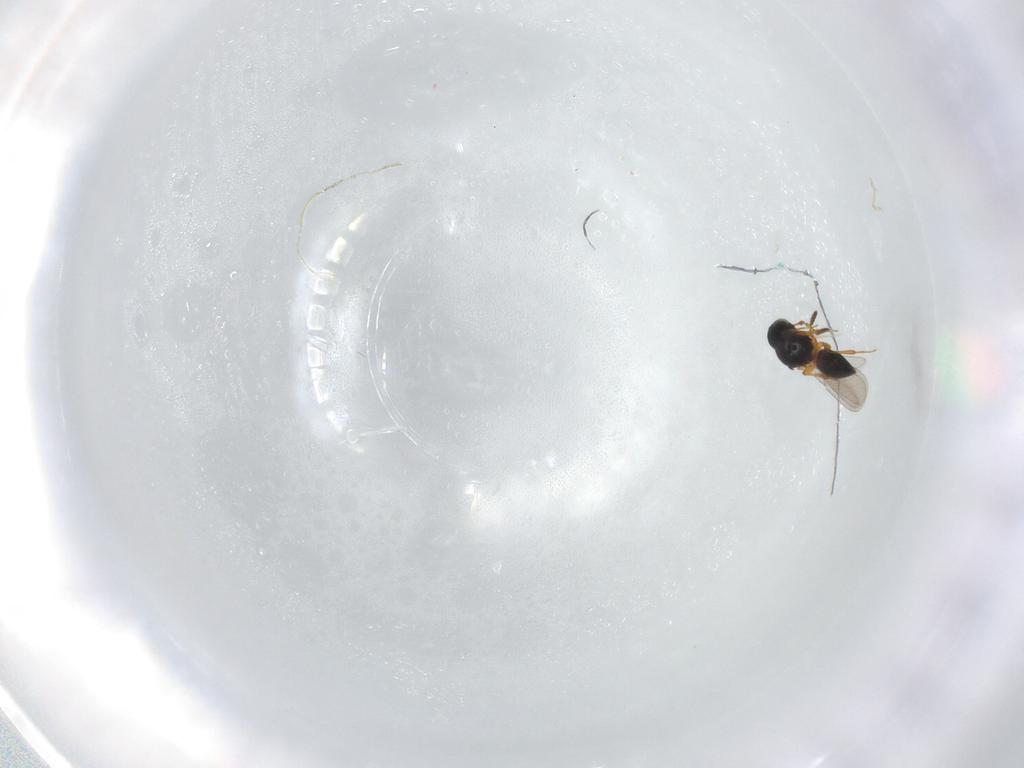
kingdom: Animalia
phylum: Arthropoda
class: Insecta
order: Hymenoptera
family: Platygastridae
